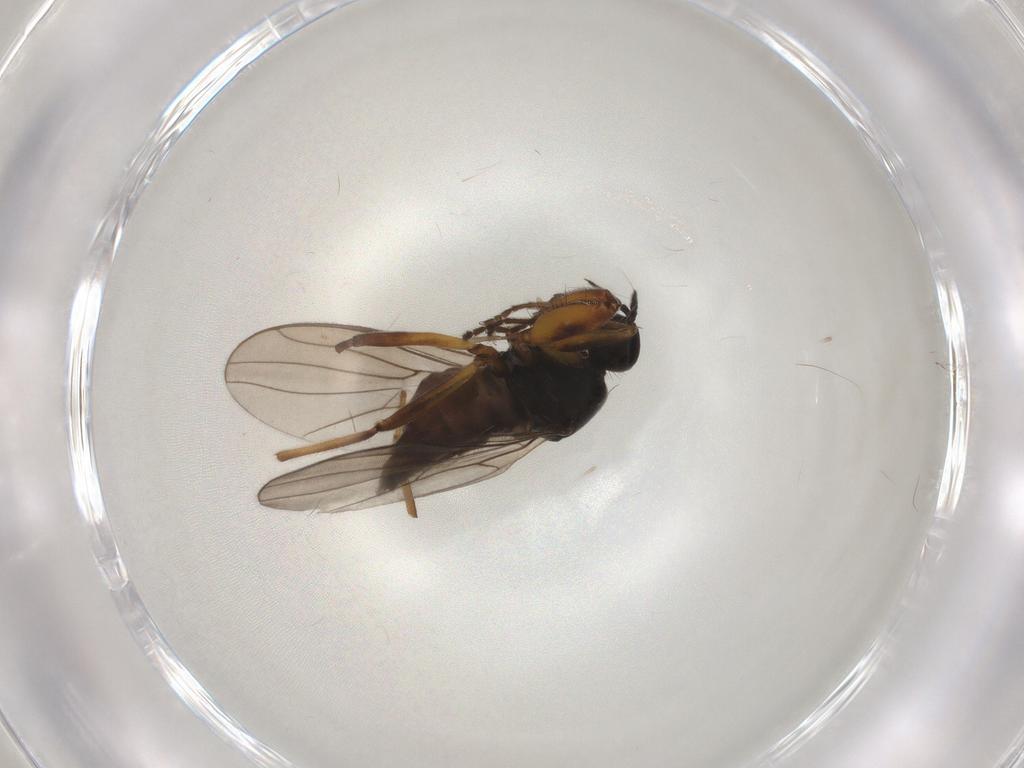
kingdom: Animalia
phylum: Arthropoda
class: Insecta
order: Diptera
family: Hybotidae
